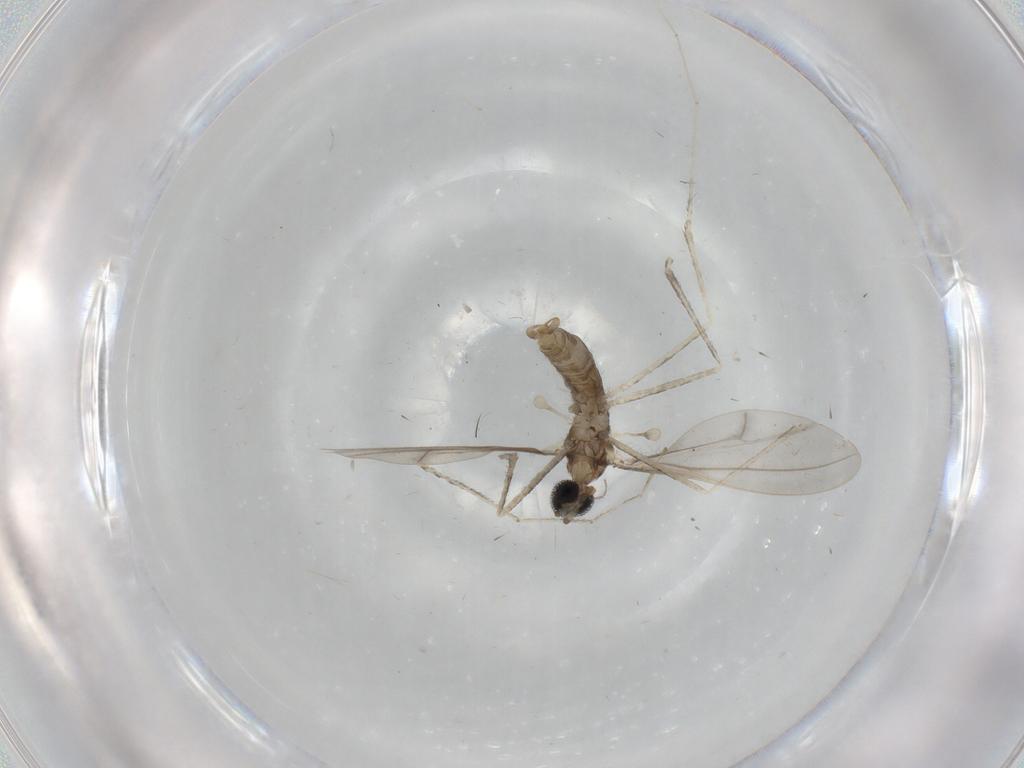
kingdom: Animalia
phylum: Arthropoda
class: Insecta
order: Diptera
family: Cecidomyiidae
